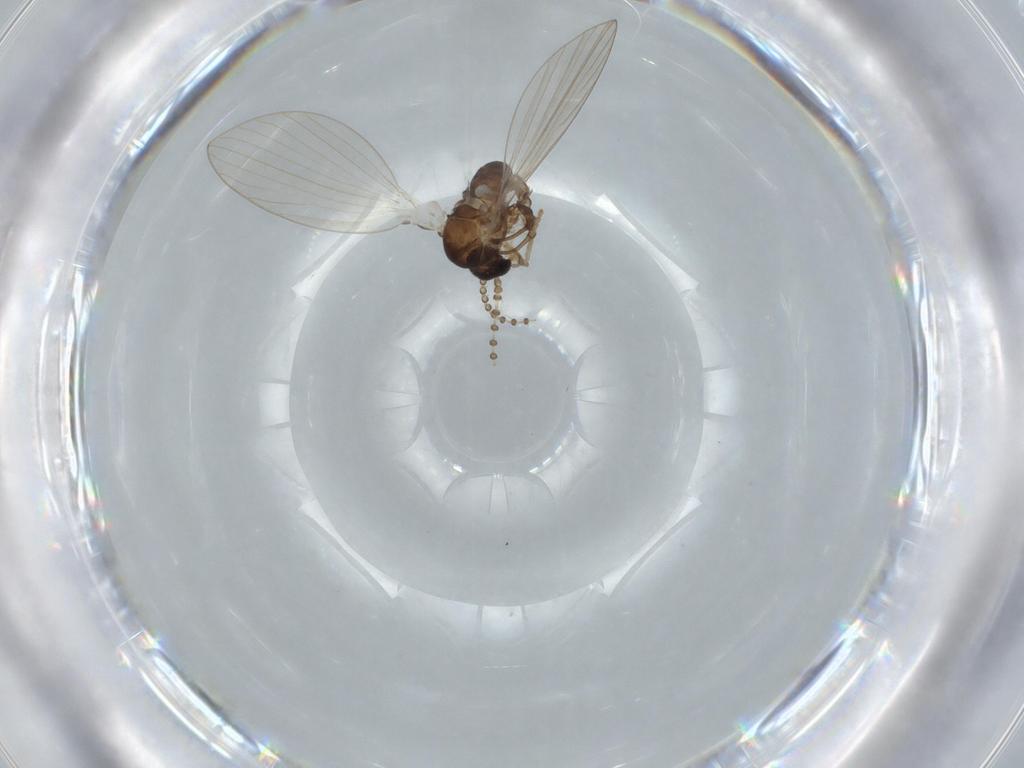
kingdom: Animalia
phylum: Arthropoda
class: Insecta
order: Diptera
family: Psychodidae
